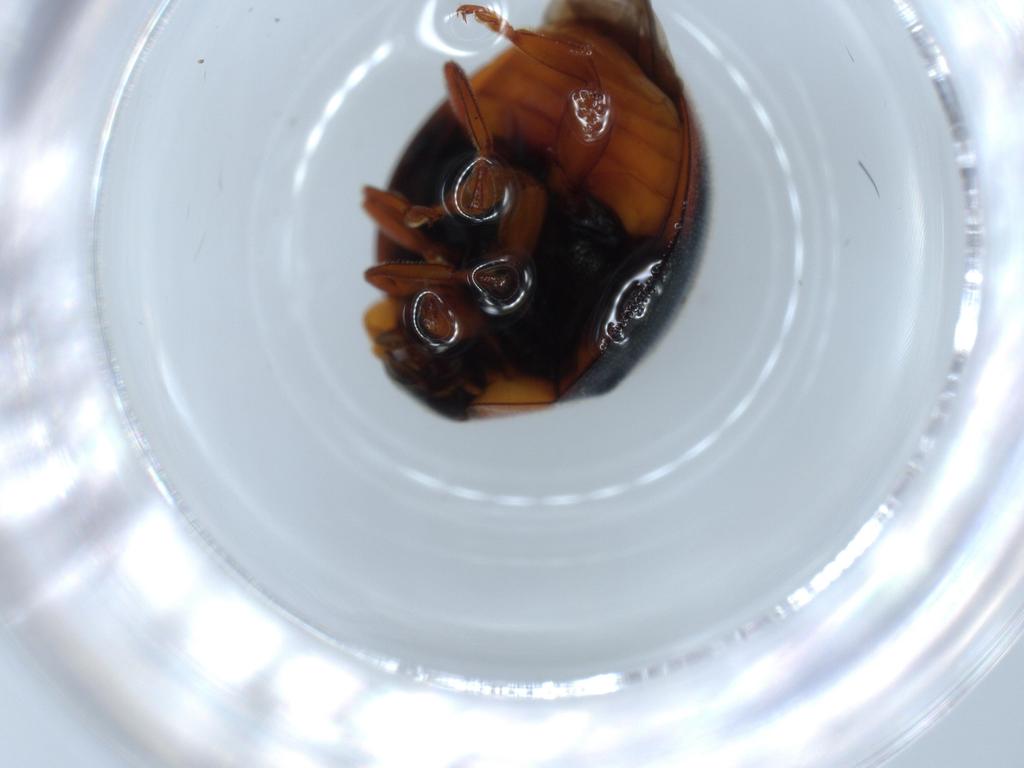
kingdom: Animalia
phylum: Arthropoda
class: Insecta
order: Coleoptera
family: Coccinellidae
